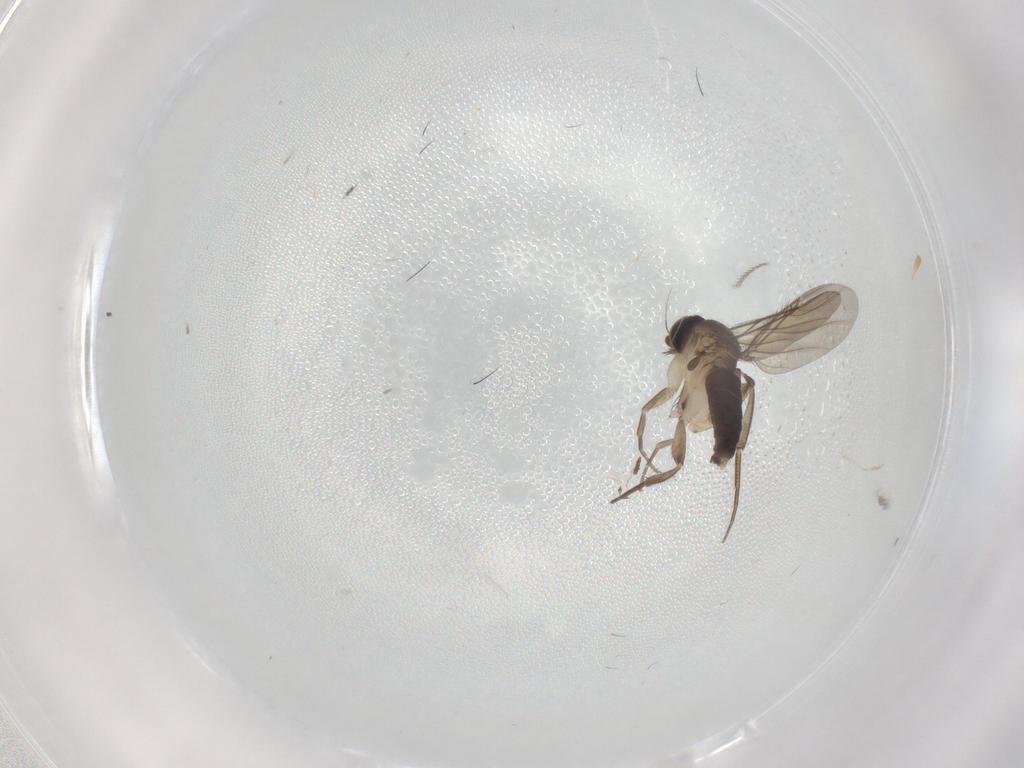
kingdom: Animalia
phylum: Arthropoda
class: Insecta
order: Diptera
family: Phoridae
